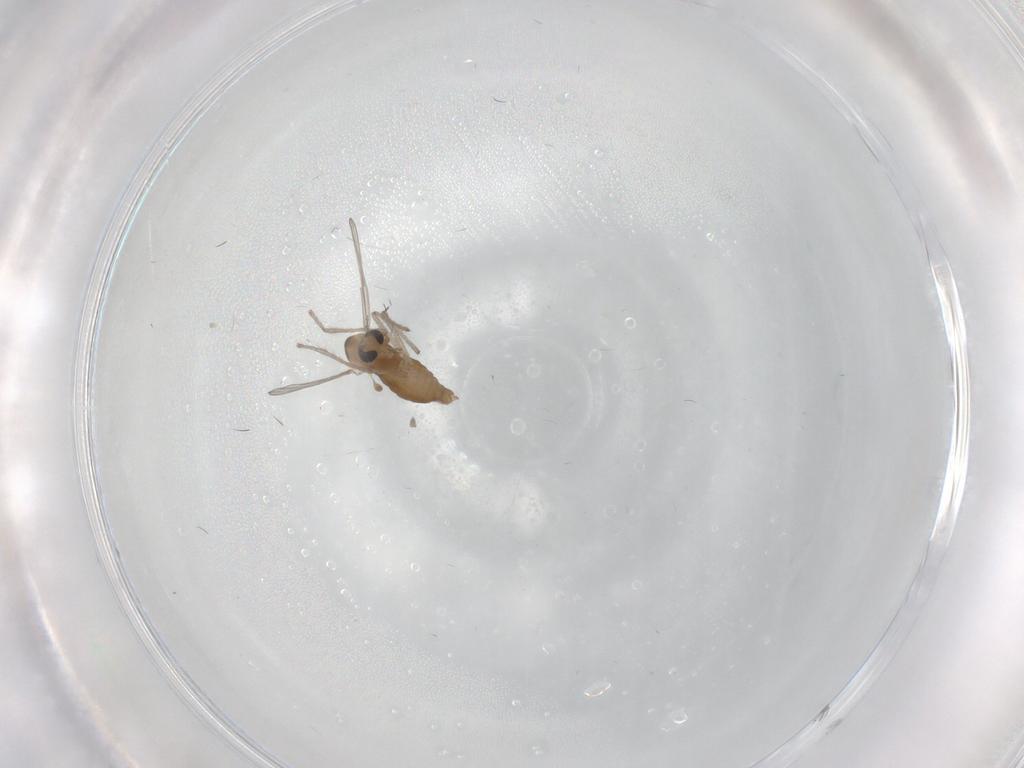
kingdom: Animalia
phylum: Arthropoda
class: Insecta
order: Diptera
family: Chironomidae
